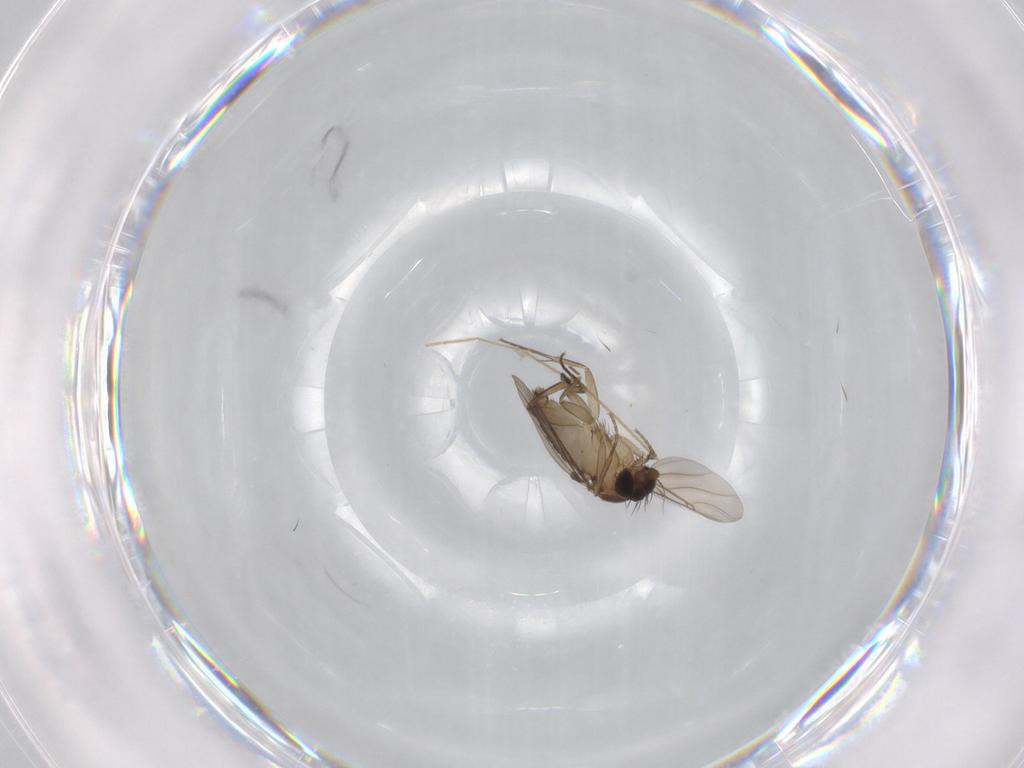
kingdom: Animalia
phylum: Arthropoda
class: Insecta
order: Diptera
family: Phoridae
